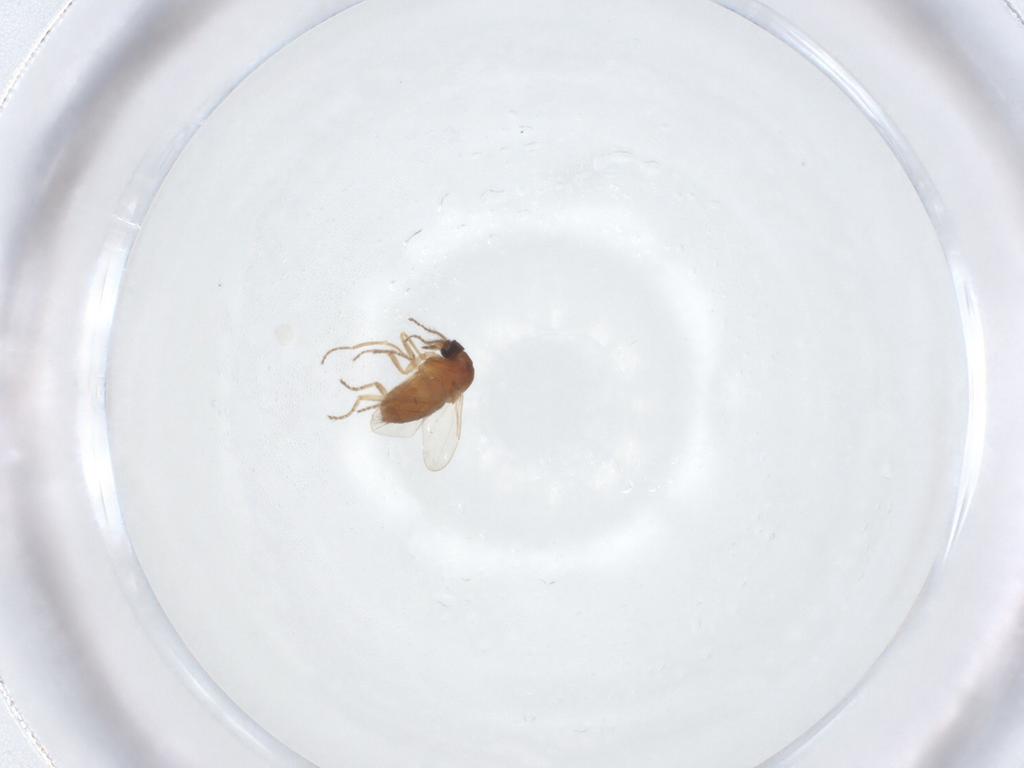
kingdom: Animalia
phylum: Arthropoda
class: Insecta
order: Diptera
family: Ceratopogonidae
